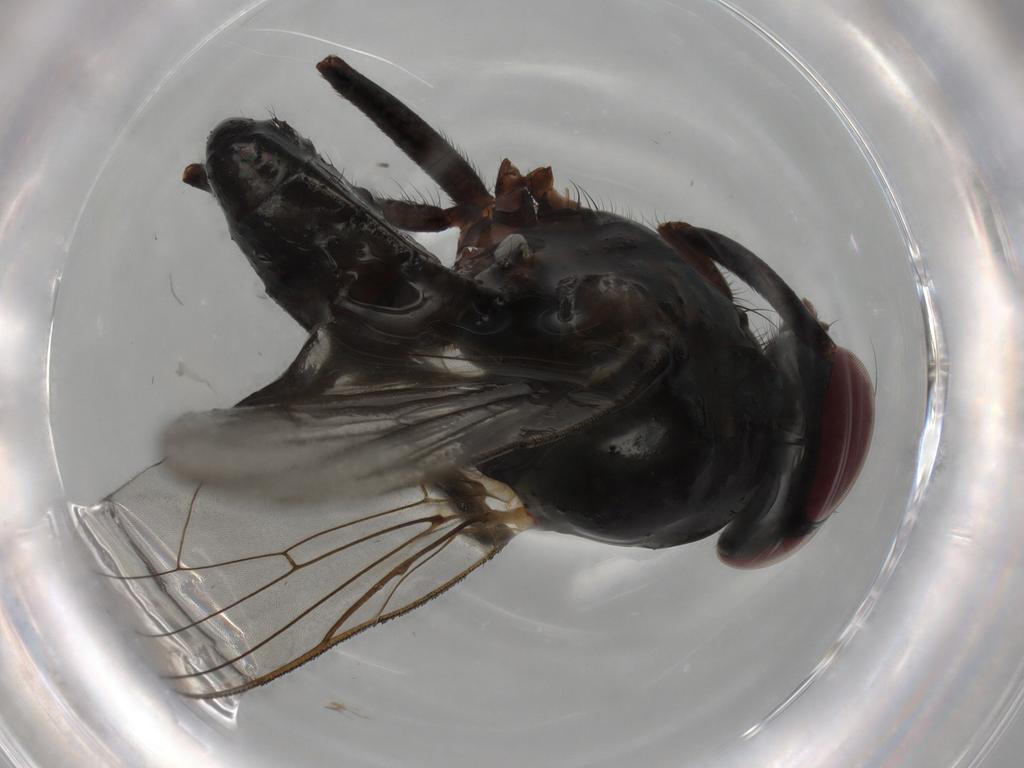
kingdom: Animalia
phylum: Arthropoda
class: Insecta
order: Diptera
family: Anthomyiidae
